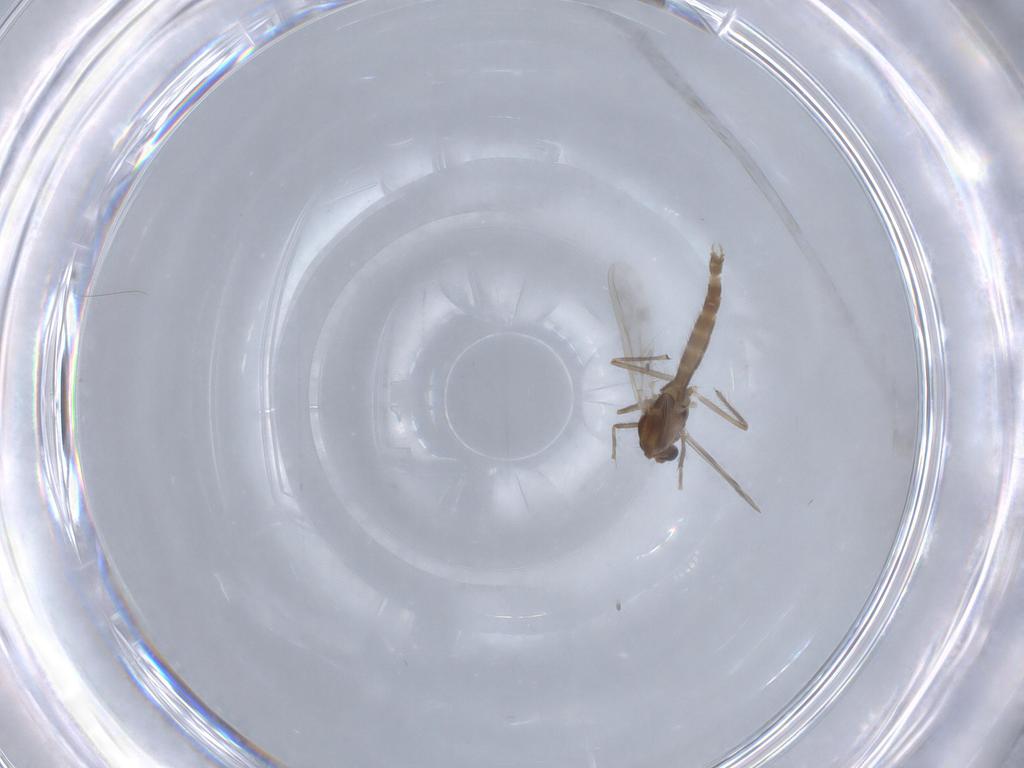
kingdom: Animalia
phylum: Arthropoda
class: Insecta
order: Diptera
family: Chironomidae
